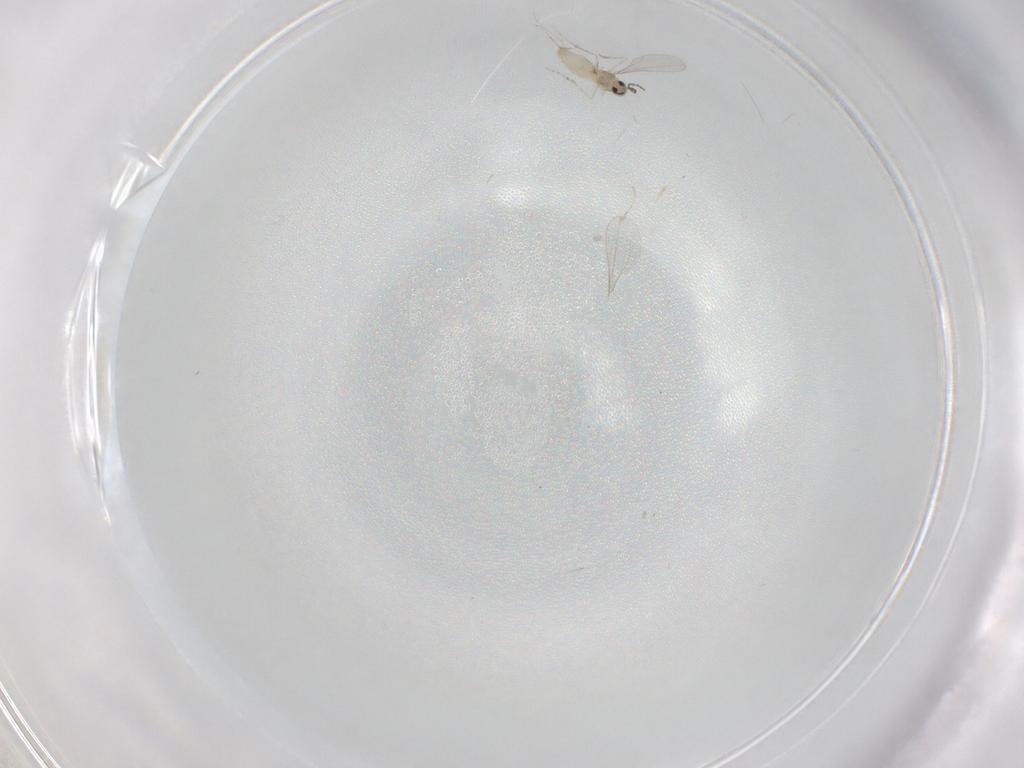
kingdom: Animalia
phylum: Arthropoda
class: Insecta
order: Diptera
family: Cecidomyiidae
